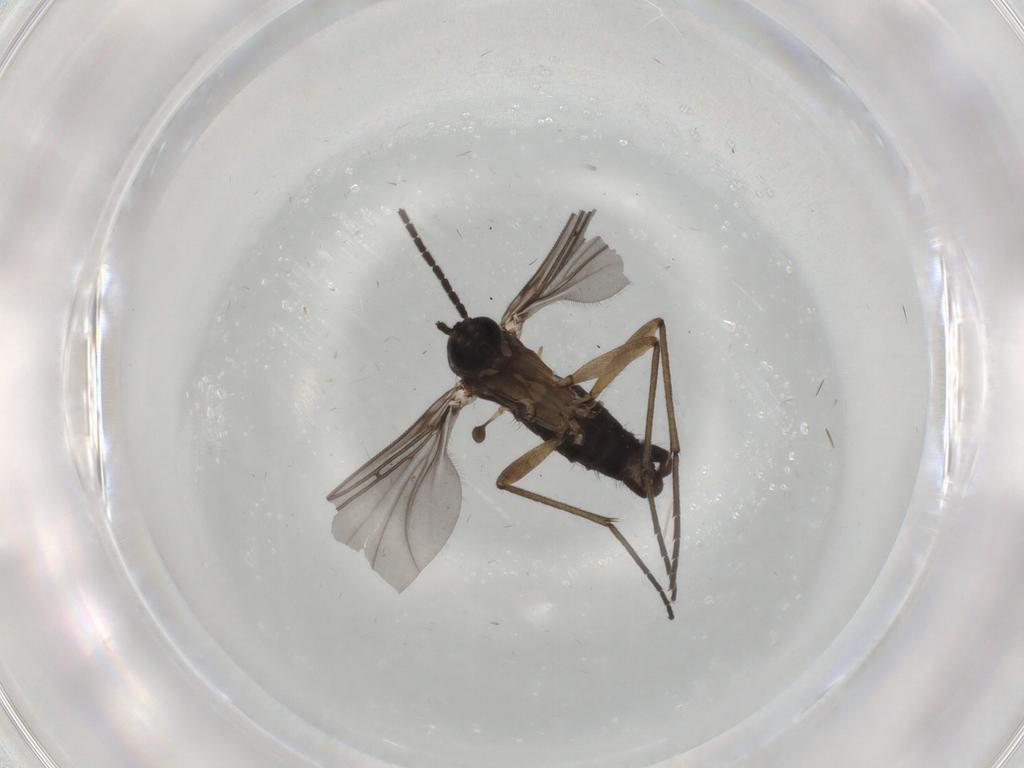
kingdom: Animalia
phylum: Arthropoda
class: Insecta
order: Diptera
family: Sciaridae
